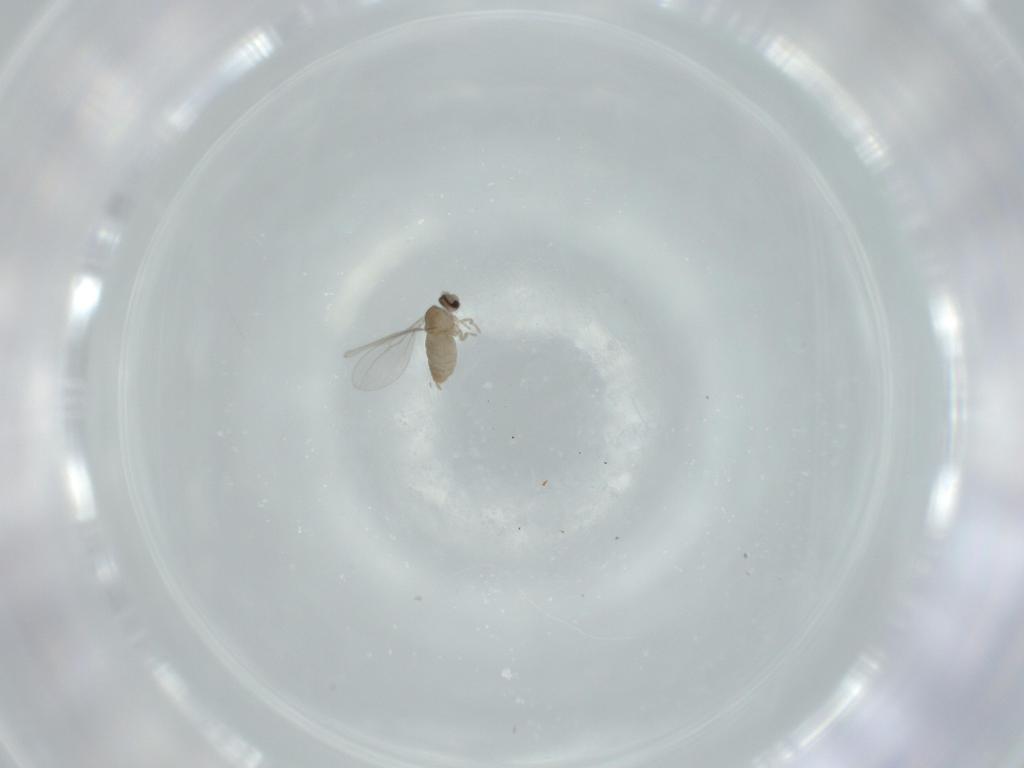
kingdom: Animalia
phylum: Arthropoda
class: Insecta
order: Diptera
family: Cecidomyiidae
